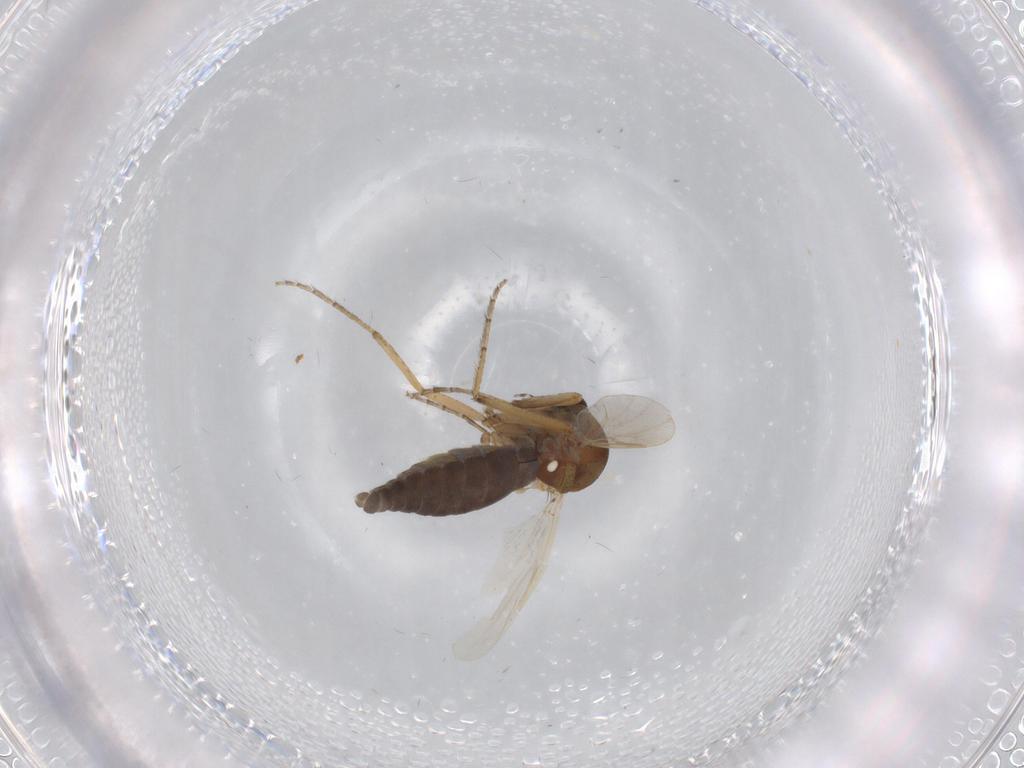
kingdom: Animalia
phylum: Arthropoda
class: Insecta
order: Diptera
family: Ceratopogonidae
